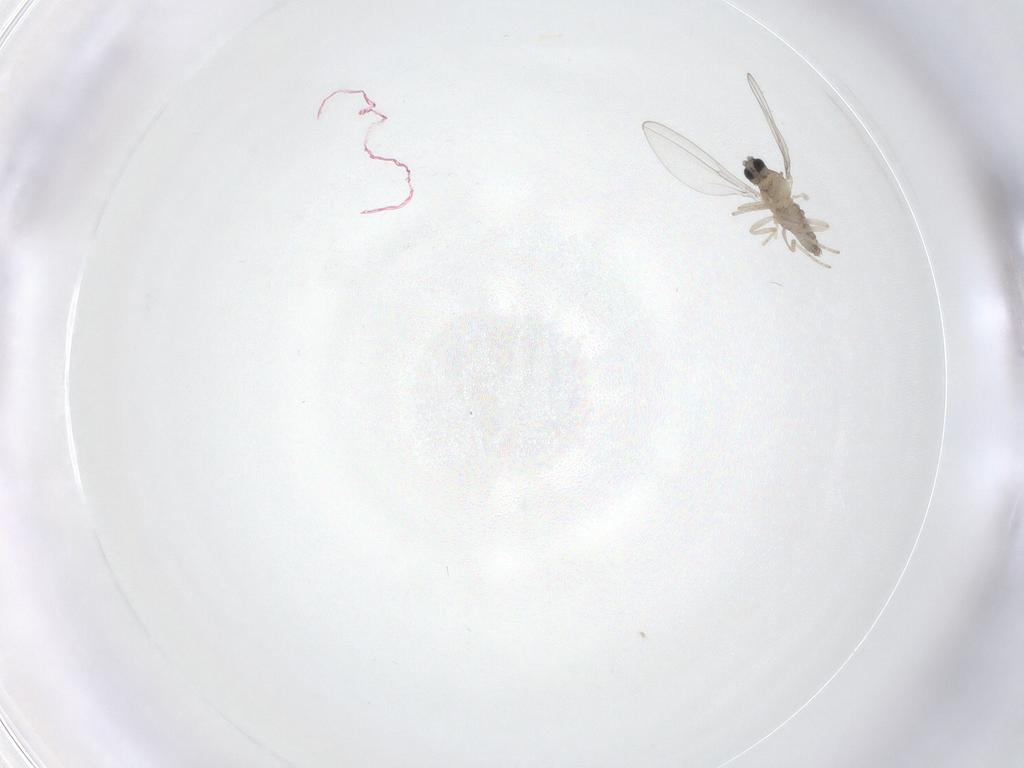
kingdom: Animalia
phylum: Arthropoda
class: Insecta
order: Diptera
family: Cecidomyiidae
